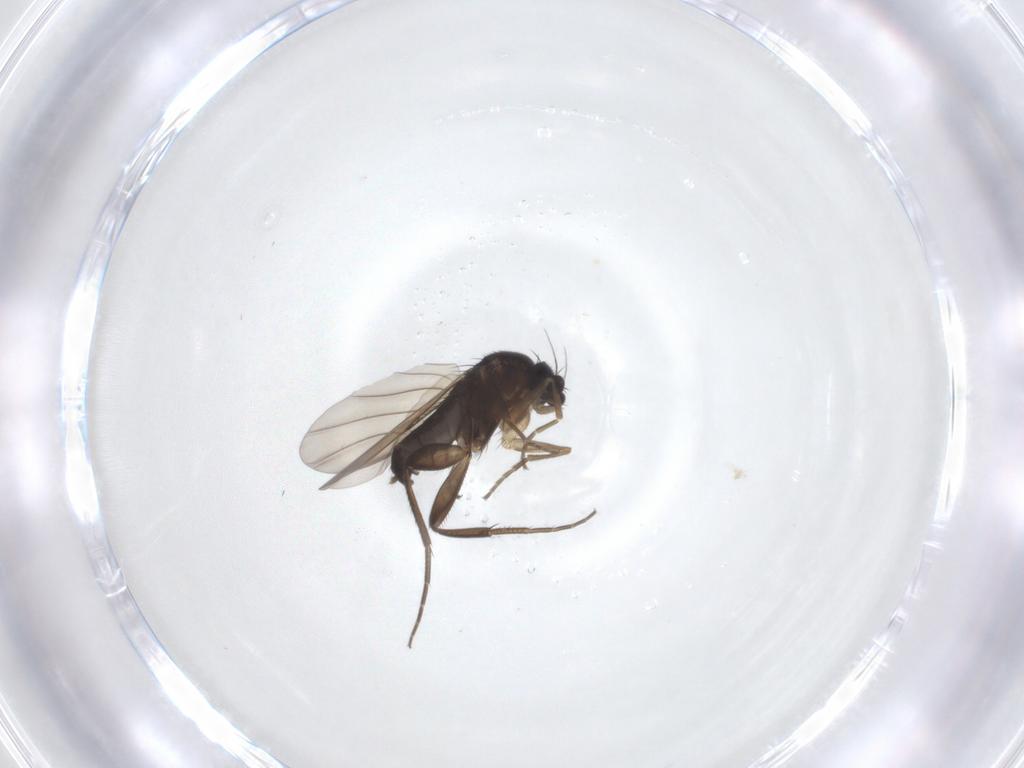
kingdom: Animalia
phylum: Arthropoda
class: Insecta
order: Diptera
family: Phoridae
